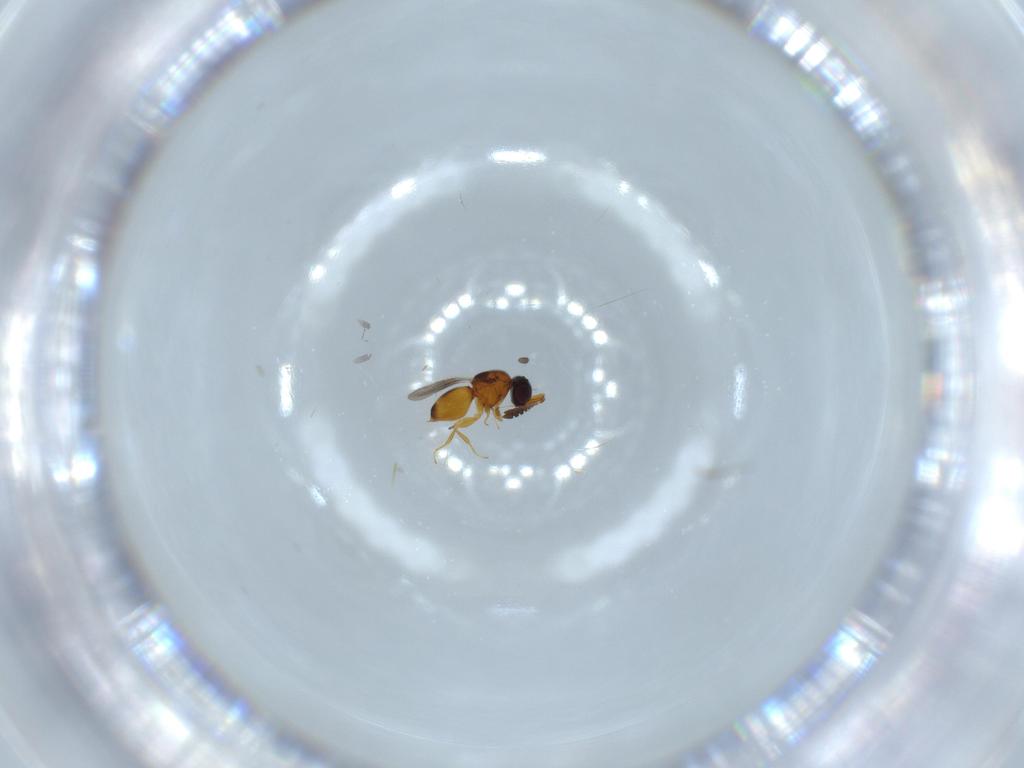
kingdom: Animalia
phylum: Arthropoda
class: Insecta
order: Hymenoptera
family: Ceraphronidae
